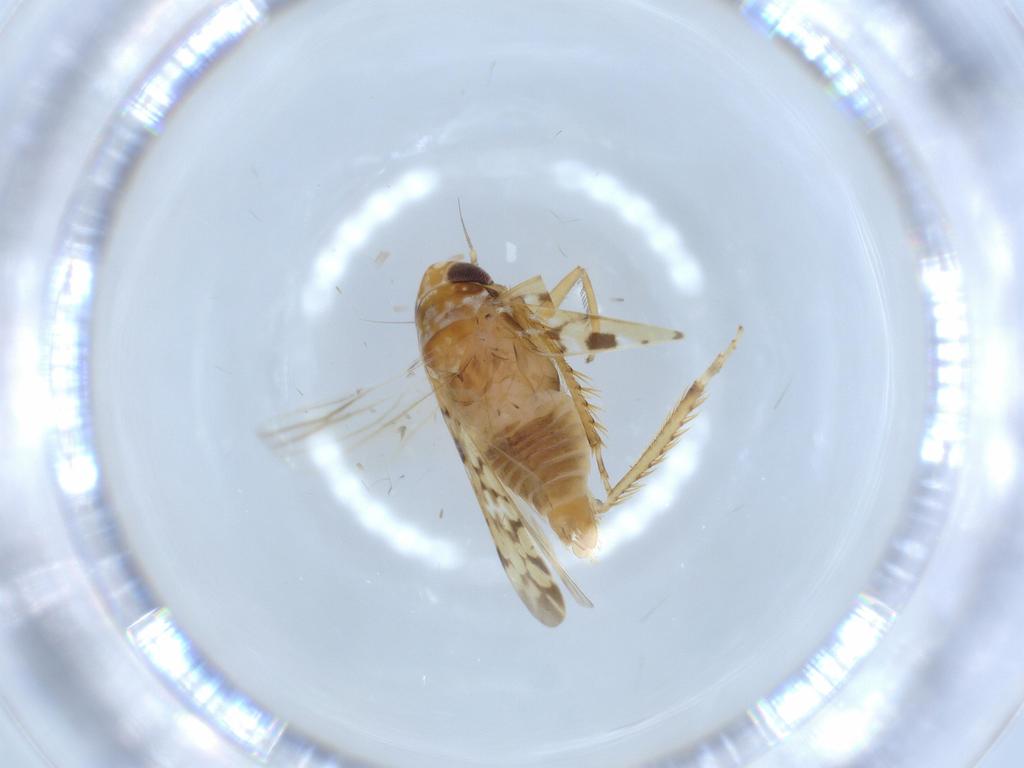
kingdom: Animalia
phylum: Arthropoda
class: Insecta
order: Hemiptera
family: Cicadellidae
